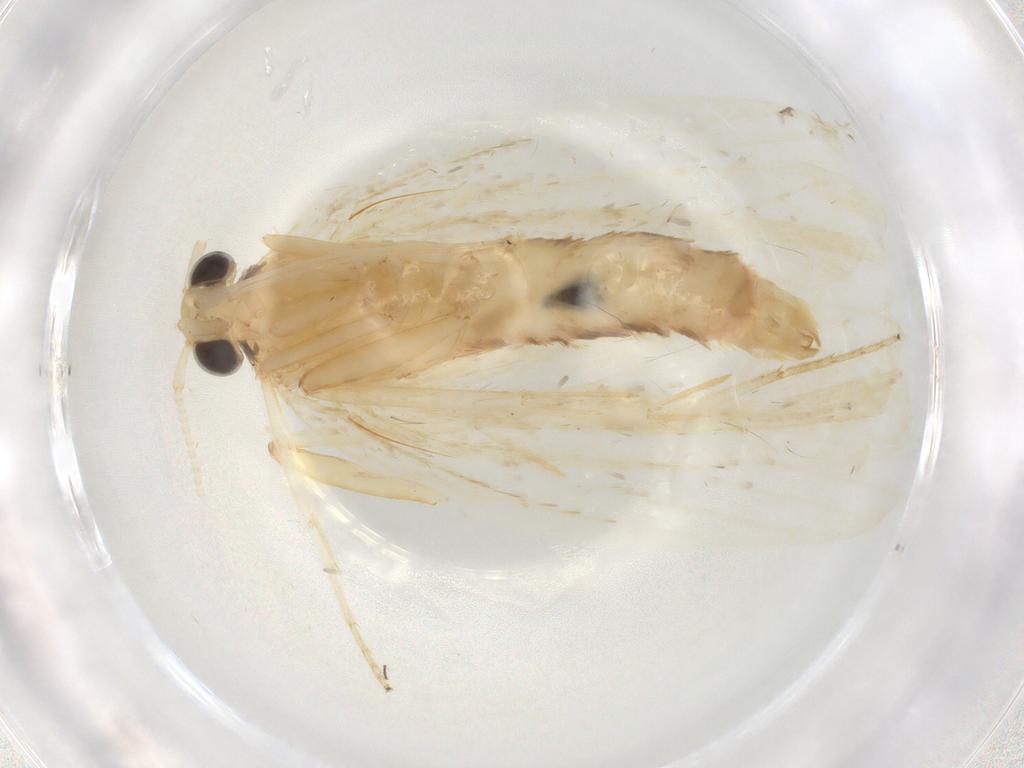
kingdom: Animalia
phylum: Arthropoda
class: Insecta
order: Lepidoptera
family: Lecithoceridae
